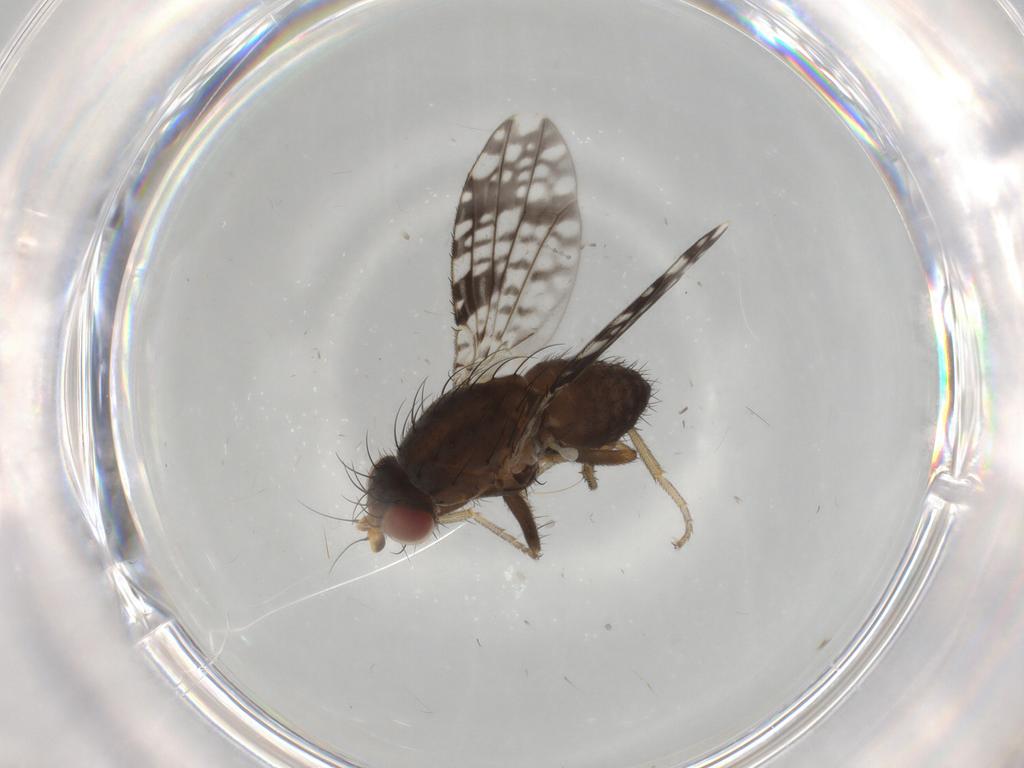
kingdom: Animalia
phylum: Arthropoda
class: Insecta
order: Diptera
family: Tephritidae
